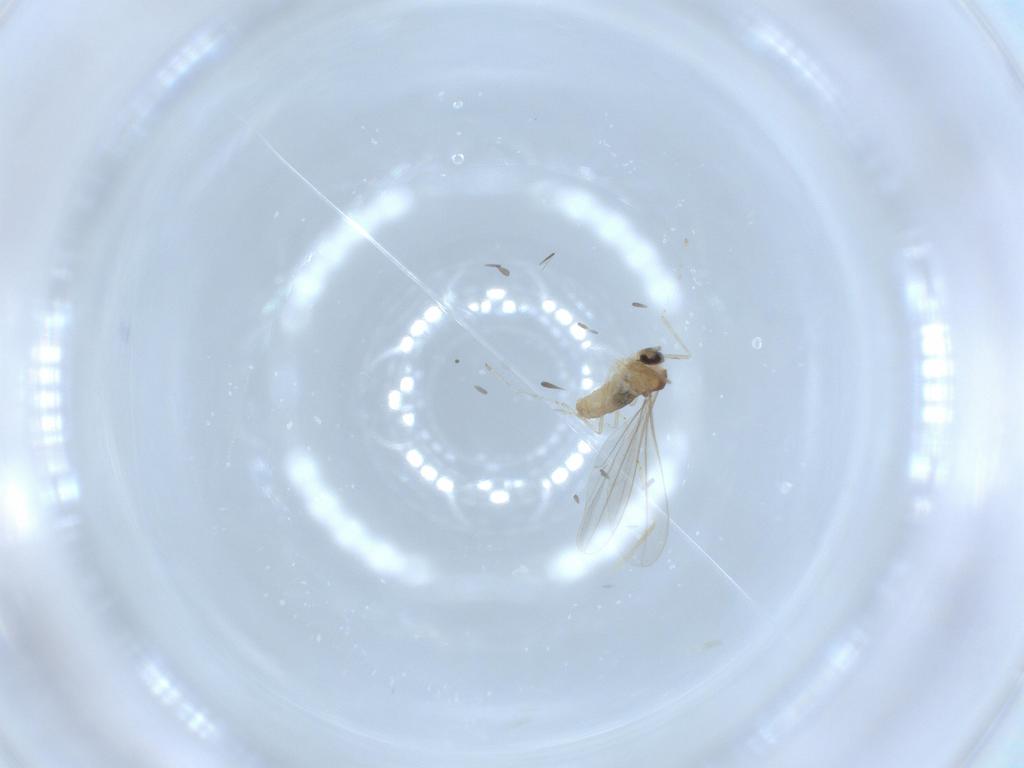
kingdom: Animalia
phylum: Arthropoda
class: Insecta
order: Diptera
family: Cecidomyiidae
